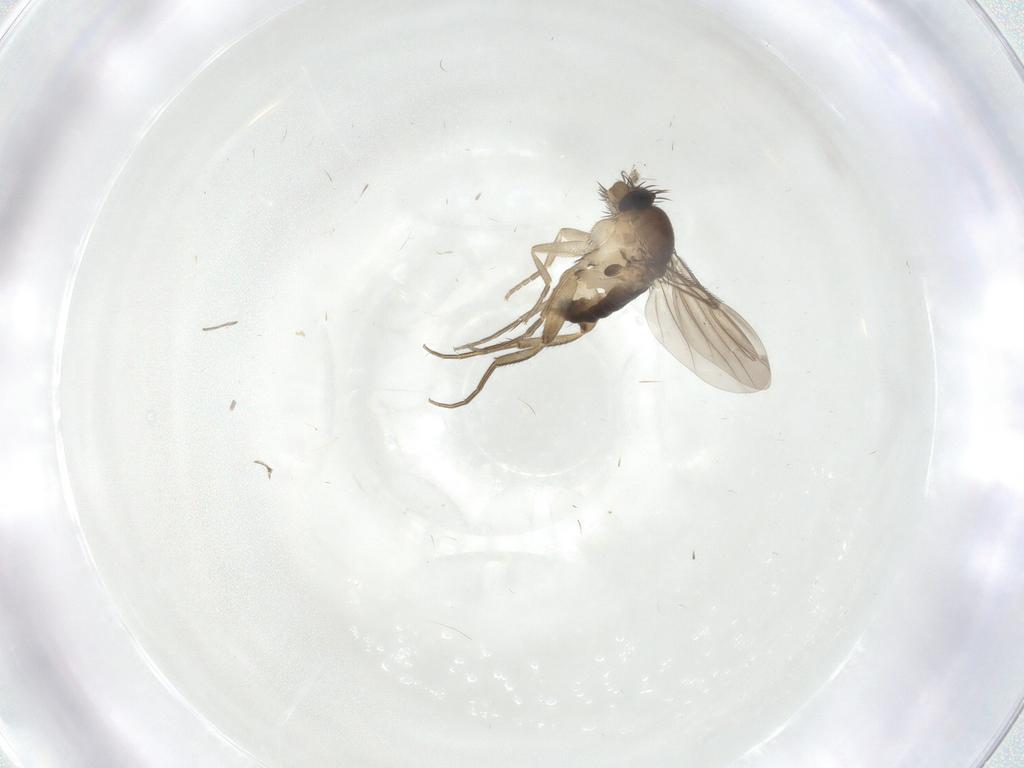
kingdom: Animalia
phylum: Arthropoda
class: Insecta
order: Diptera
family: Phoridae
